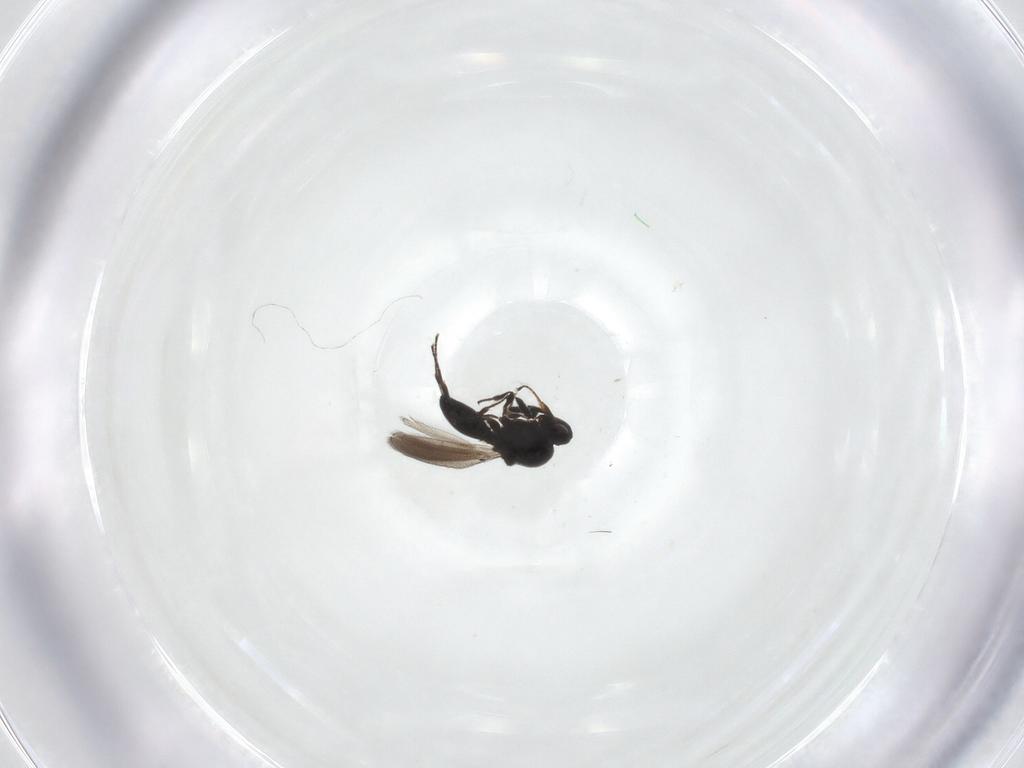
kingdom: Animalia
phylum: Arthropoda
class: Insecta
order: Hymenoptera
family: Platygastridae
